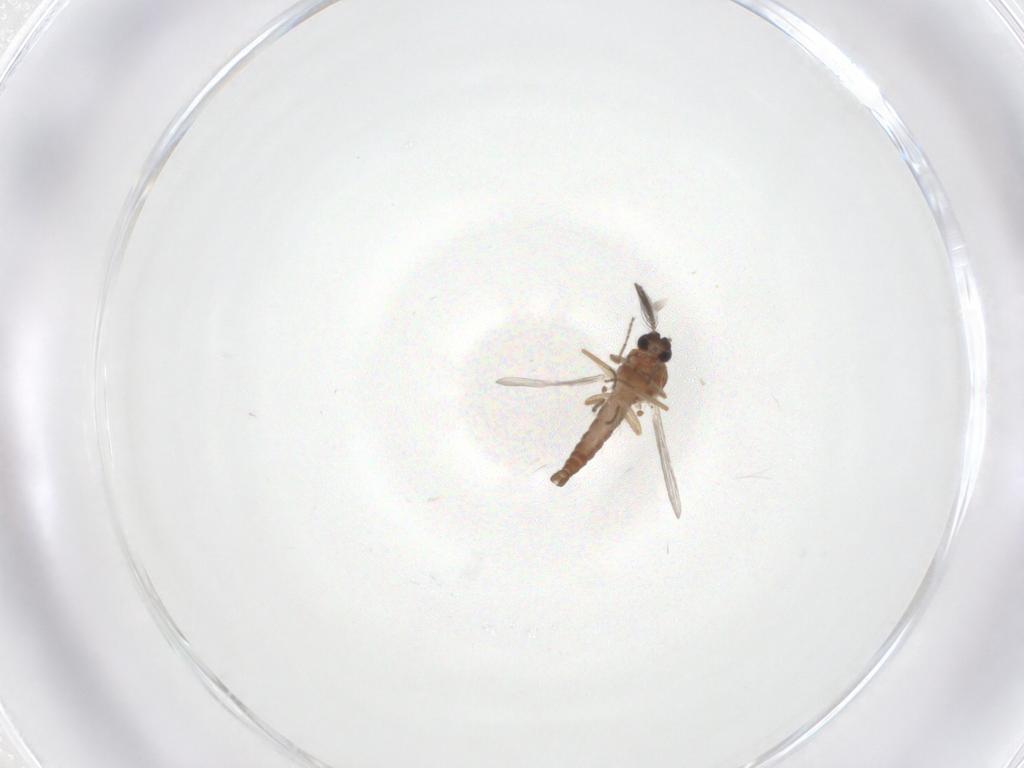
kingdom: Animalia
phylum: Arthropoda
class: Insecta
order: Diptera
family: Ceratopogonidae
